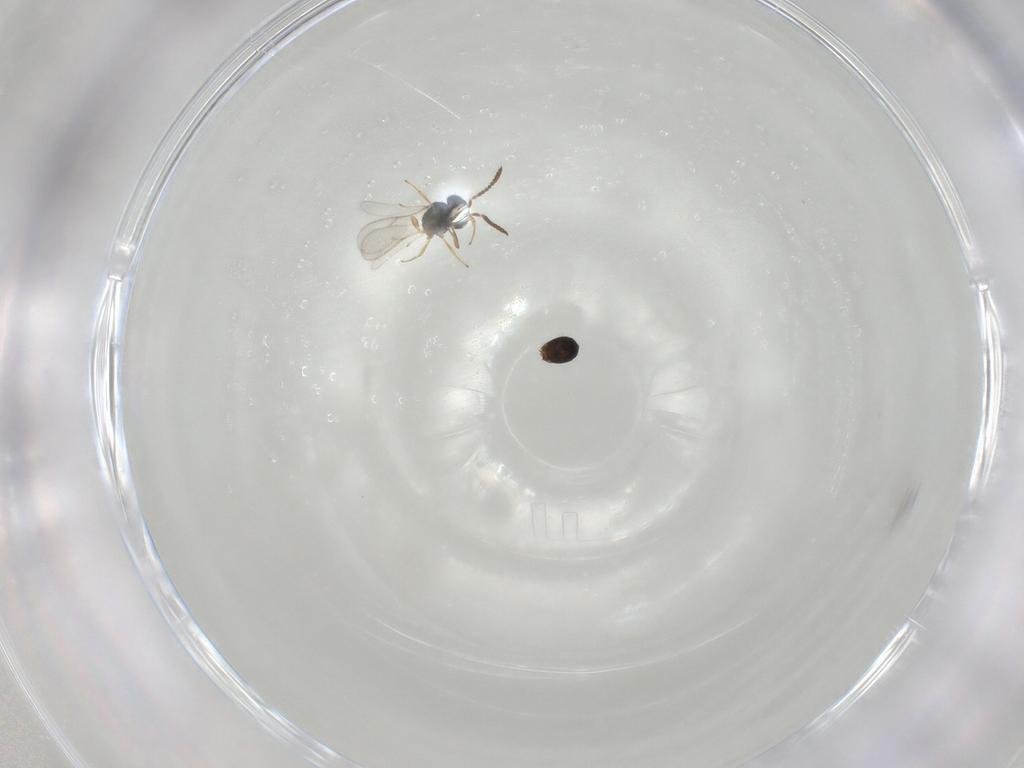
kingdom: Animalia
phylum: Arthropoda
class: Insecta
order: Hymenoptera
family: Scelionidae
